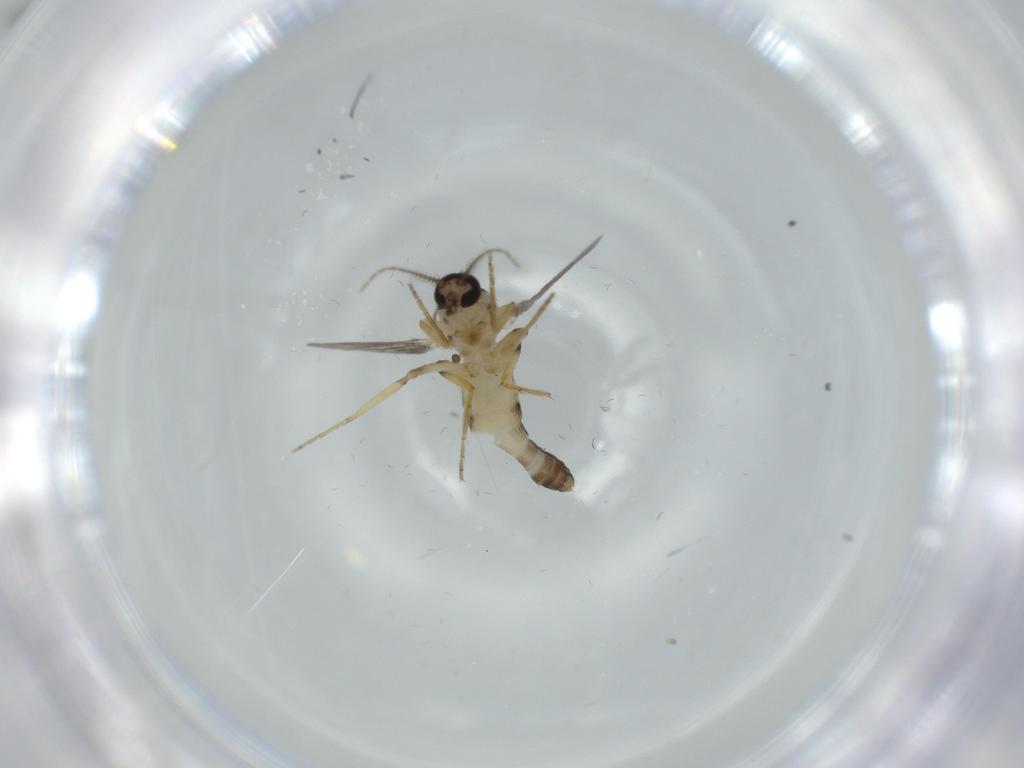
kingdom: Animalia
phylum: Arthropoda
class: Insecta
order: Diptera
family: Ceratopogonidae
